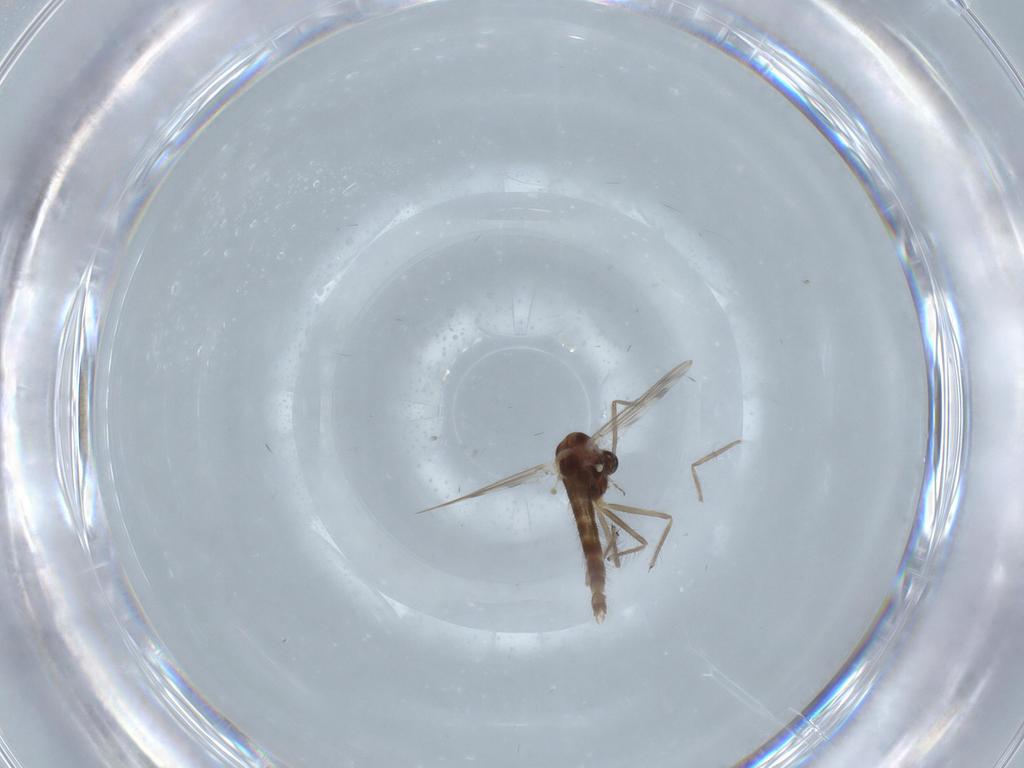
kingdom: Animalia
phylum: Arthropoda
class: Insecta
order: Diptera
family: Chironomidae
